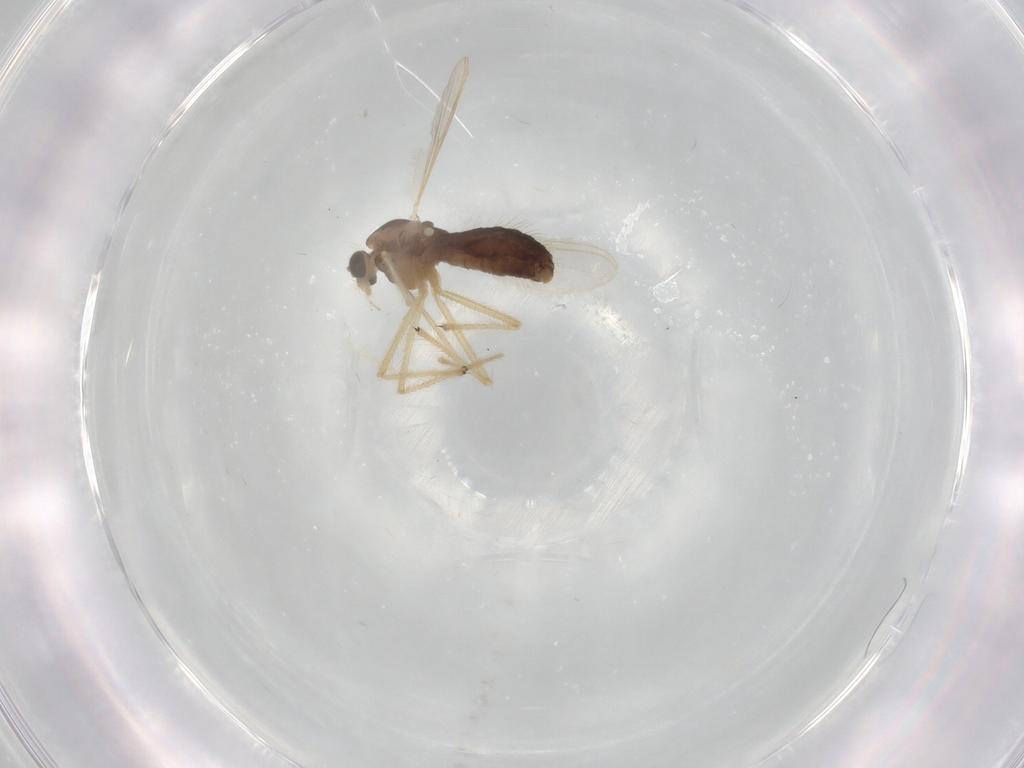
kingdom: Animalia
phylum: Arthropoda
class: Insecta
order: Diptera
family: Chironomidae
